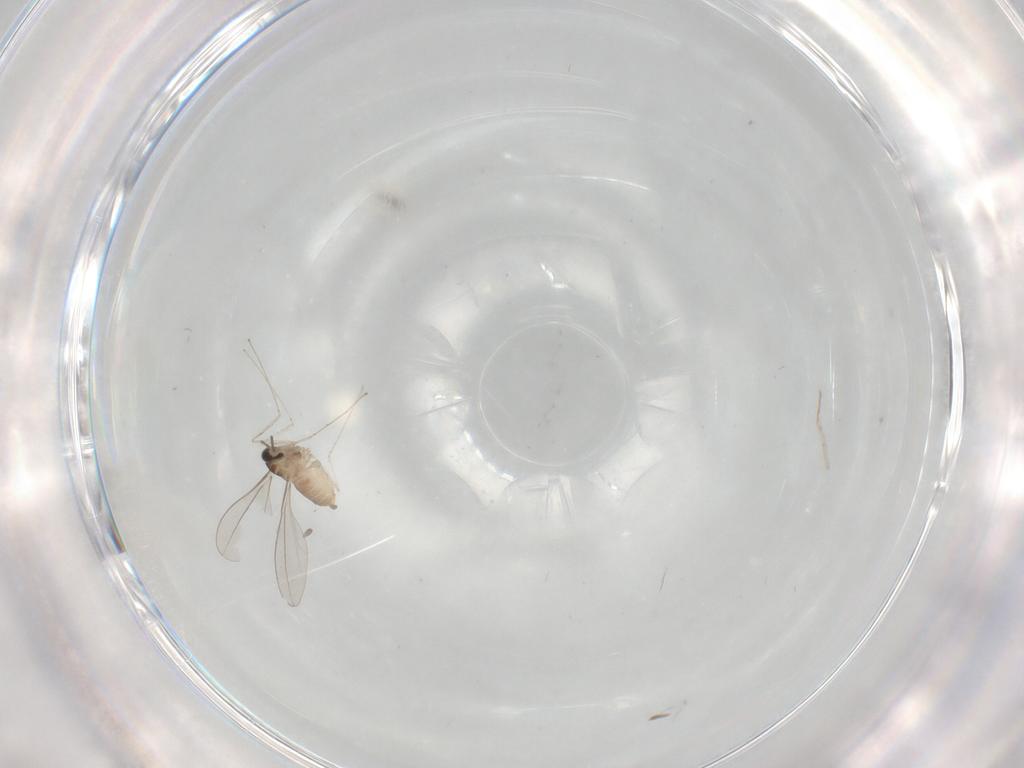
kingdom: Animalia
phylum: Arthropoda
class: Insecta
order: Diptera
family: Cecidomyiidae
